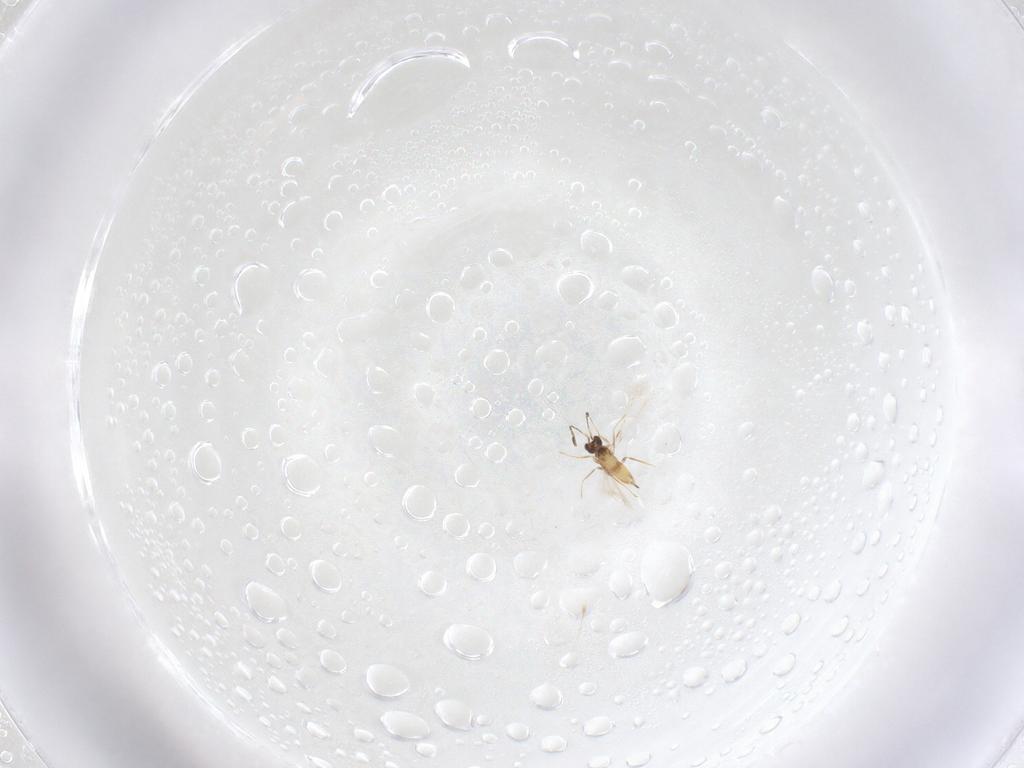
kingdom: Animalia
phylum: Arthropoda
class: Insecta
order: Hymenoptera
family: Mymaridae
